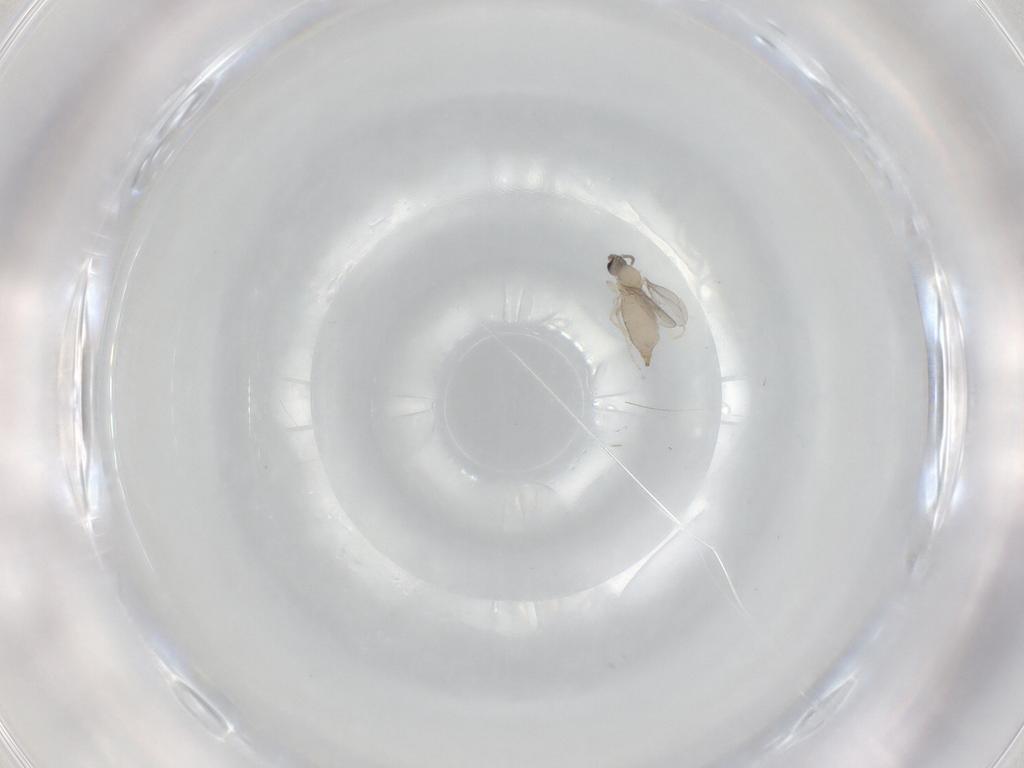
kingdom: Animalia
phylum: Arthropoda
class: Insecta
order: Diptera
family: Cecidomyiidae
